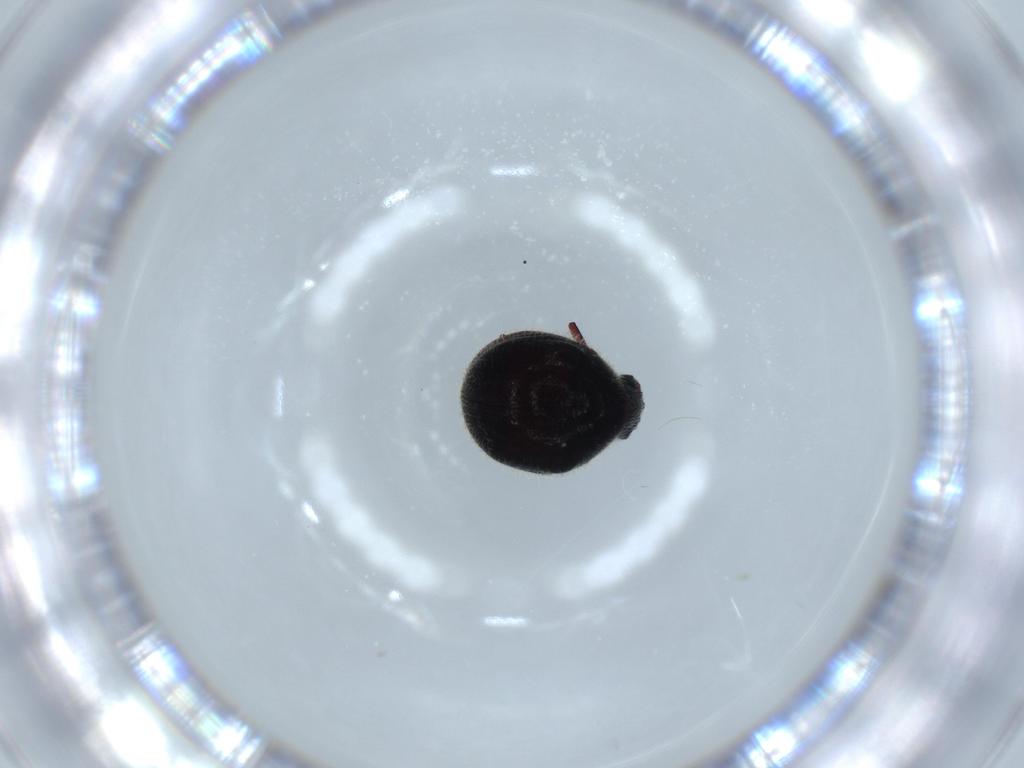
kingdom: Animalia
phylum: Arthropoda
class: Insecta
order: Coleoptera
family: Ptinidae
